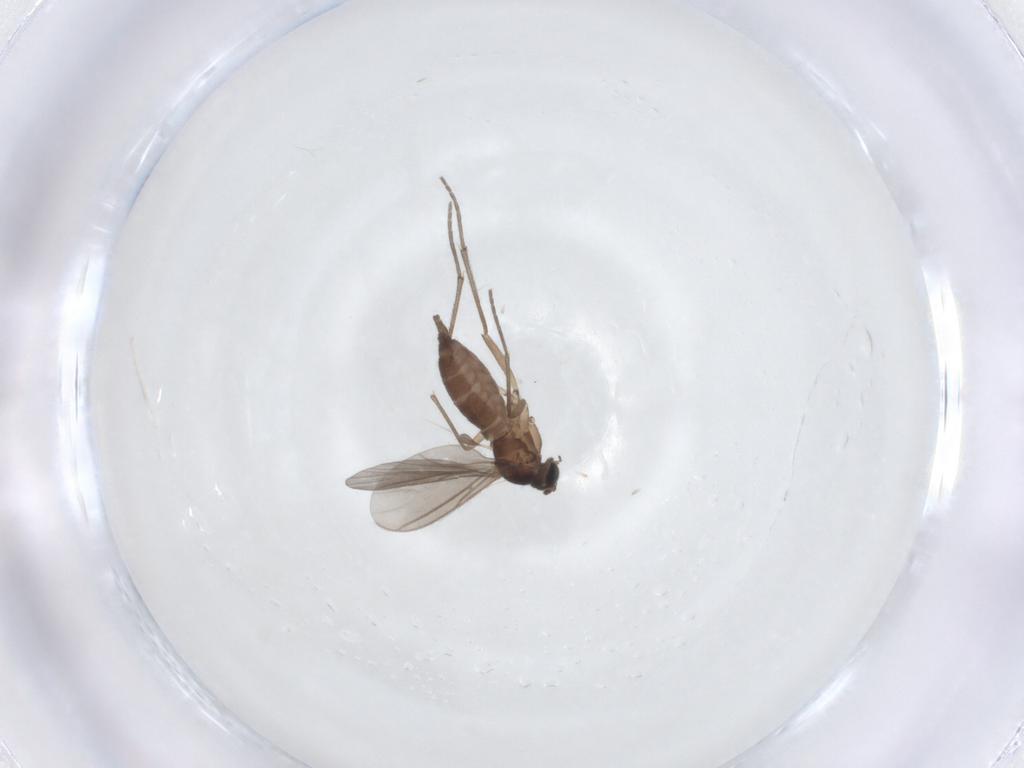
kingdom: Animalia
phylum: Arthropoda
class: Insecta
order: Diptera
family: Sciaridae
